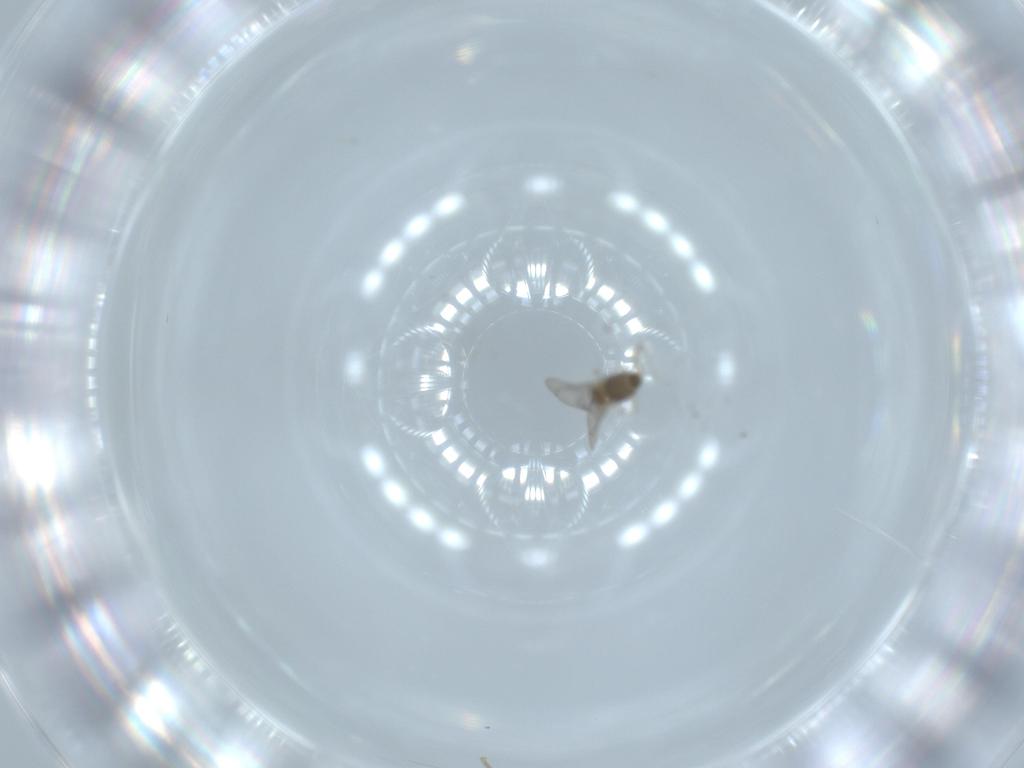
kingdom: Animalia
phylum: Arthropoda
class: Insecta
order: Diptera
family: Cecidomyiidae
